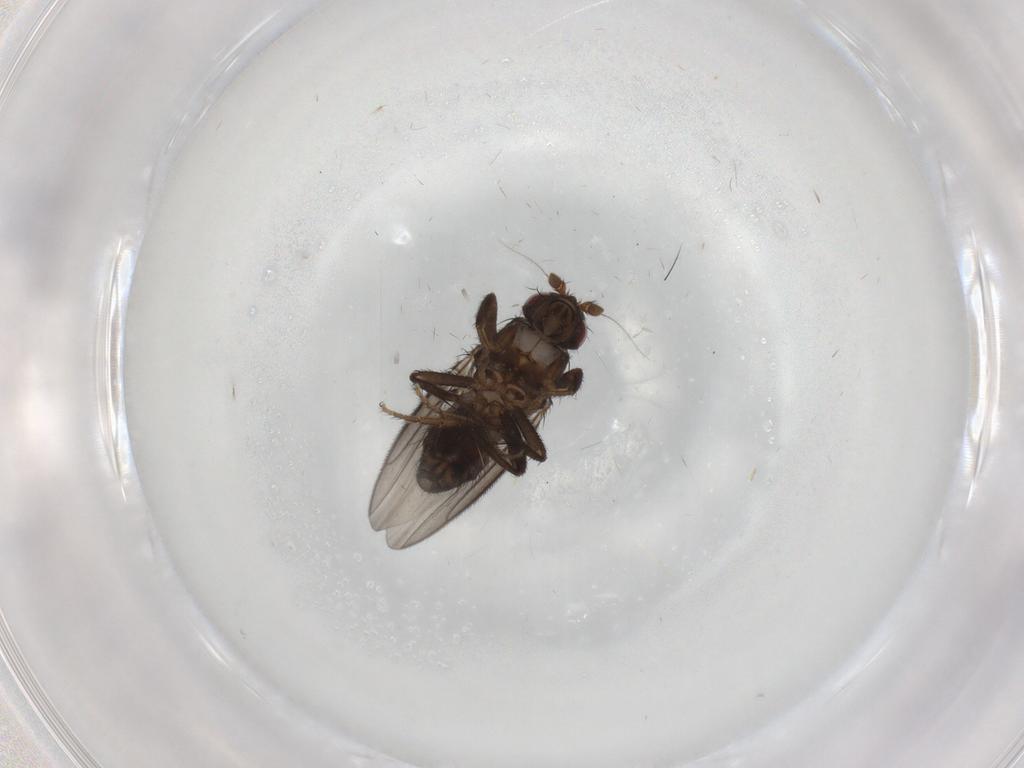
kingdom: Animalia
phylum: Arthropoda
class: Insecta
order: Diptera
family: Sphaeroceridae
